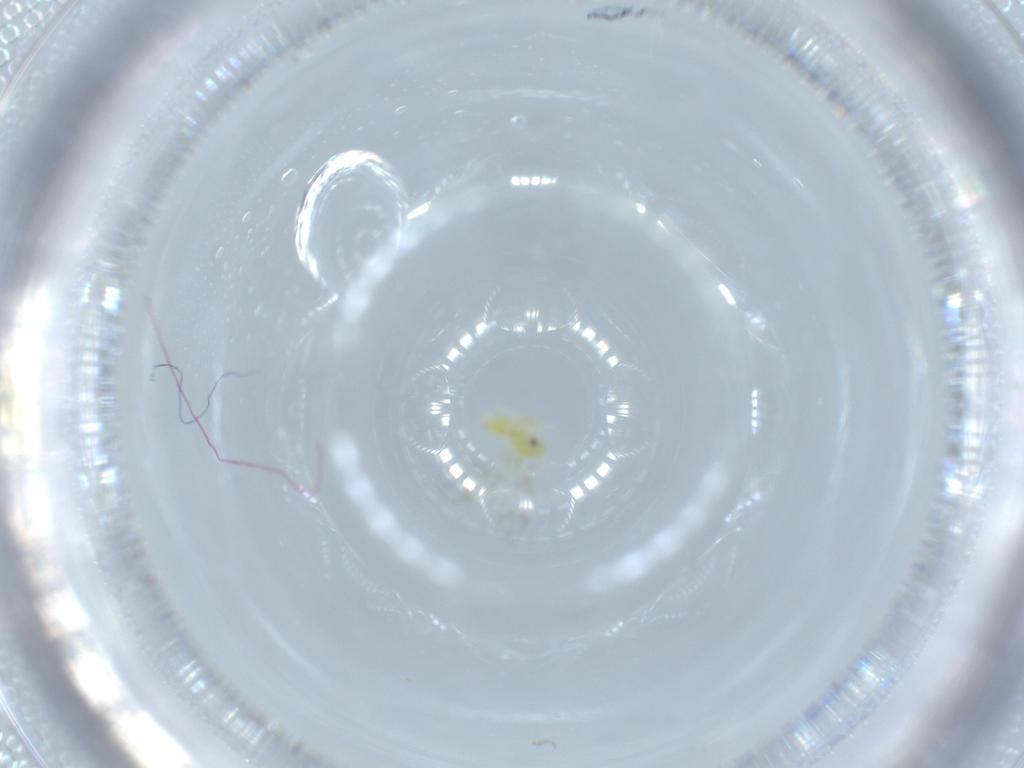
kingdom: Animalia
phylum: Arthropoda
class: Insecta
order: Hemiptera
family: Aleyrodidae
